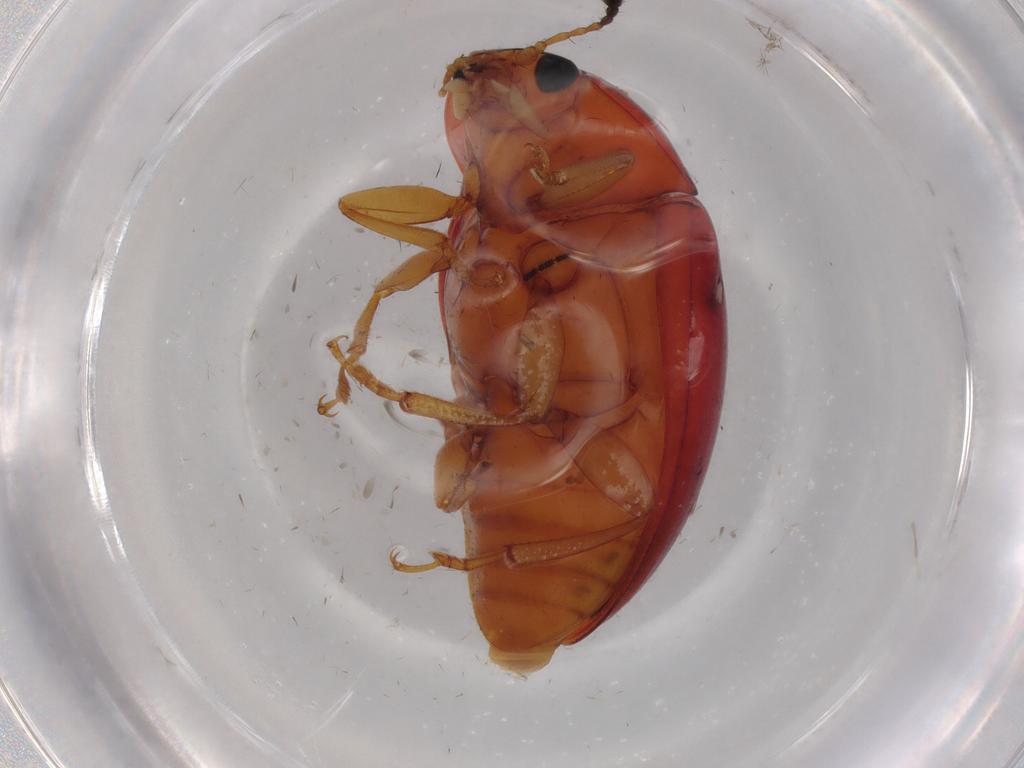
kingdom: Animalia
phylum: Arthropoda
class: Insecta
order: Coleoptera
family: Erotylidae
